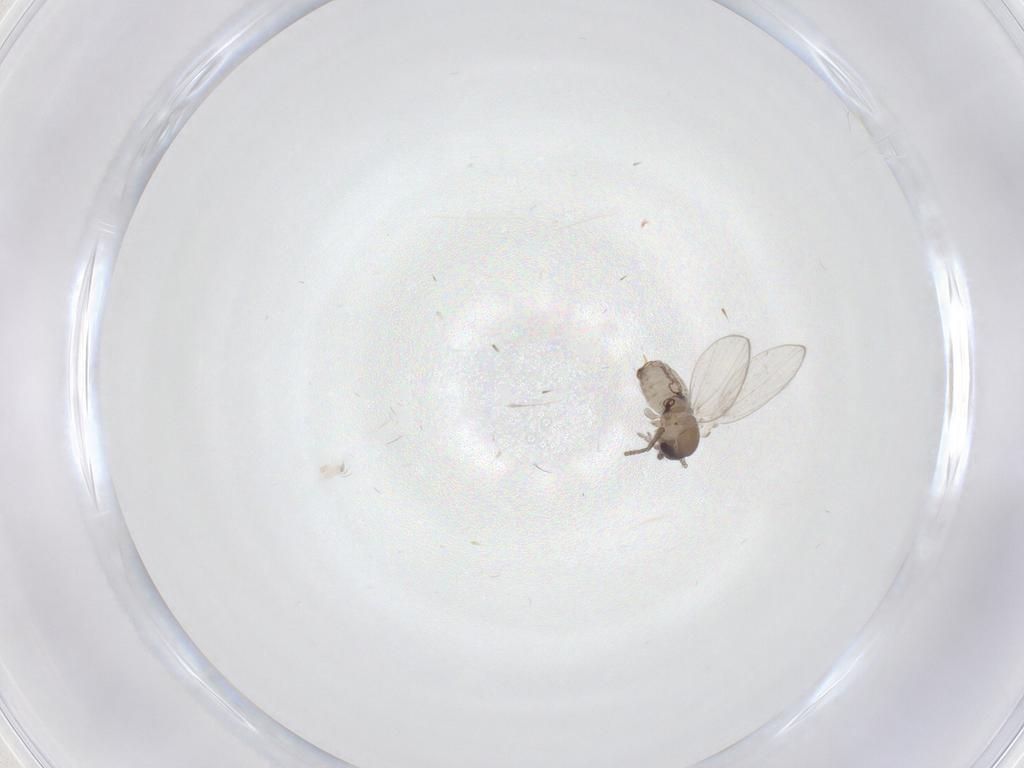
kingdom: Animalia
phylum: Arthropoda
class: Insecta
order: Diptera
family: Psychodidae
